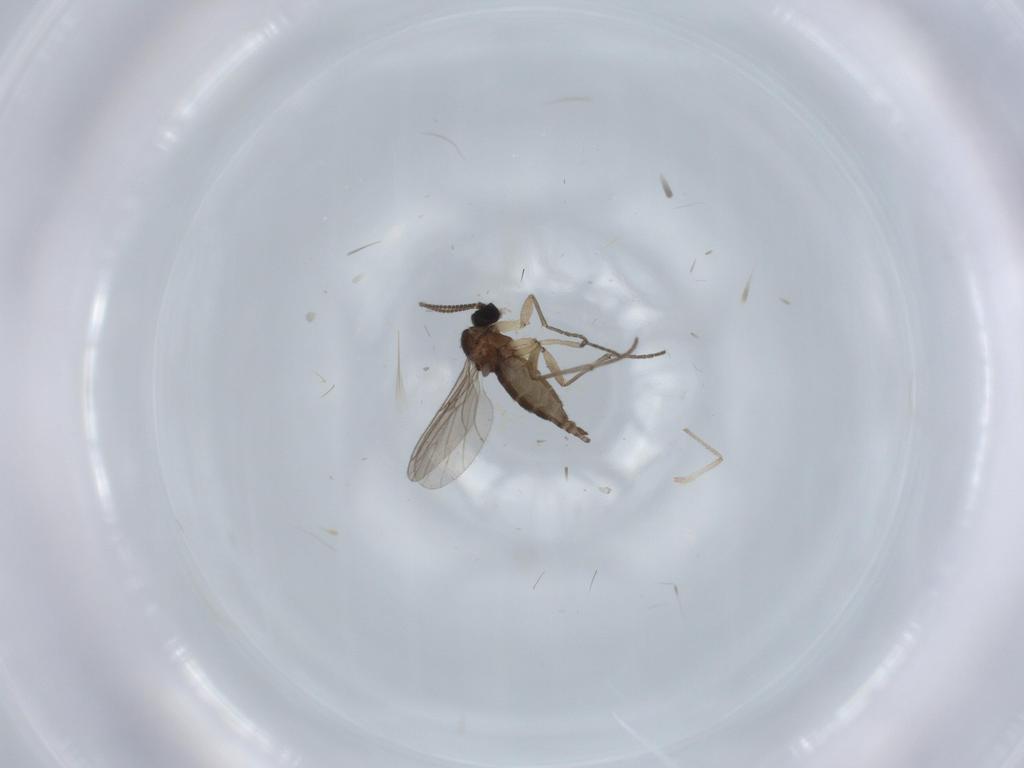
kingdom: Animalia
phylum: Arthropoda
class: Insecta
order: Diptera
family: Sciaridae
